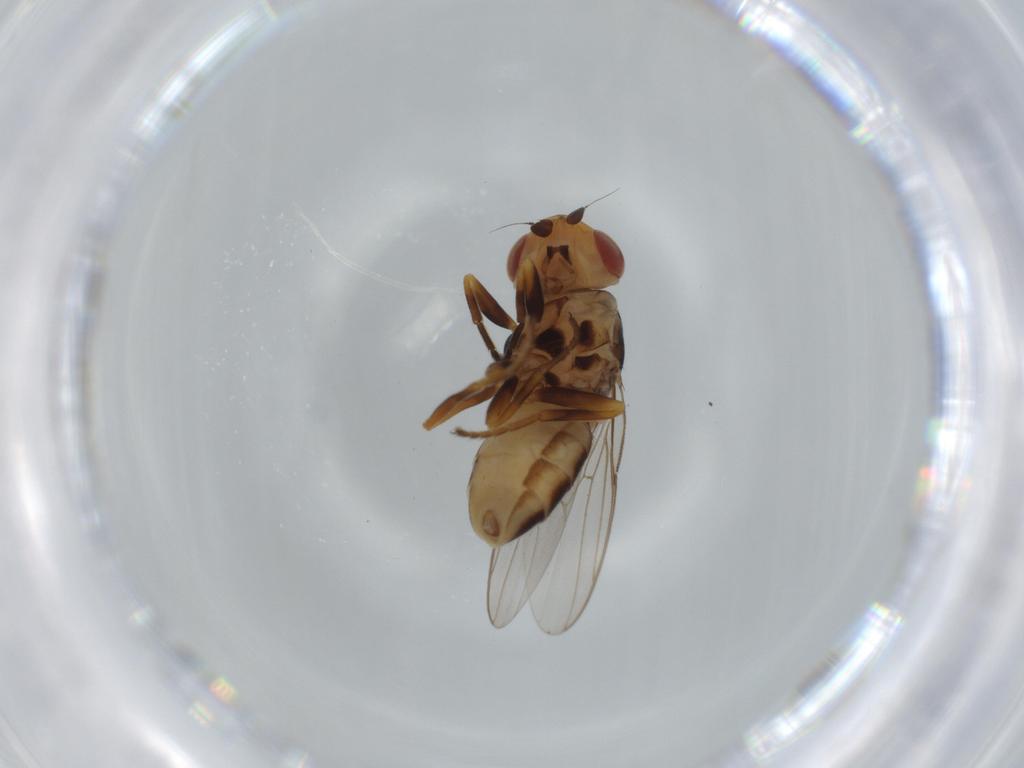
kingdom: Animalia
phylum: Arthropoda
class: Insecta
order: Diptera
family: Chloropidae
